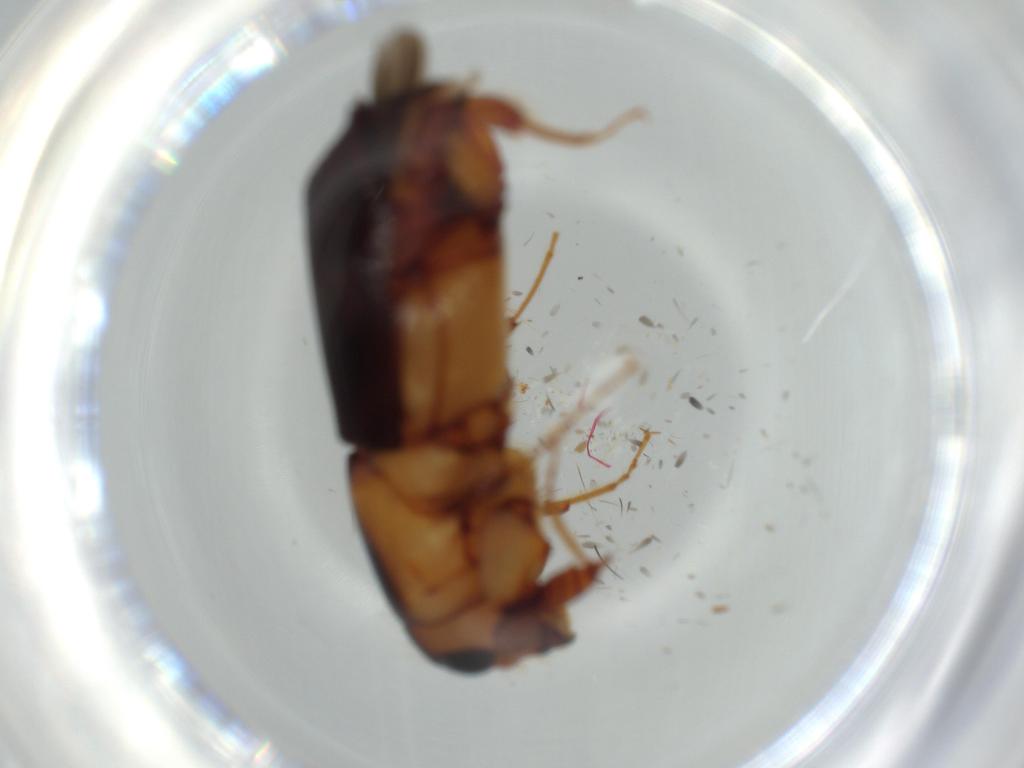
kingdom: Animalia
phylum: Arthropoda
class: Insecta
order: Coleoptera
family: Curculionidae
